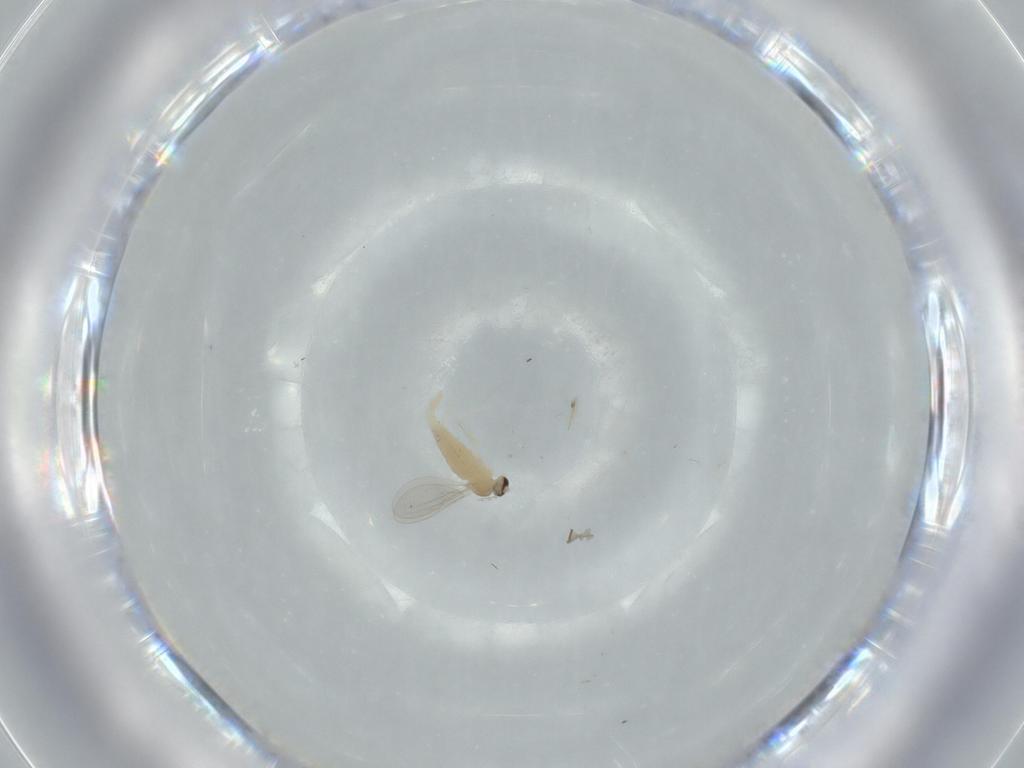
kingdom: Animalia
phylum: Arthropoda
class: Insecta
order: Diptera
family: Cecidomyiidae
